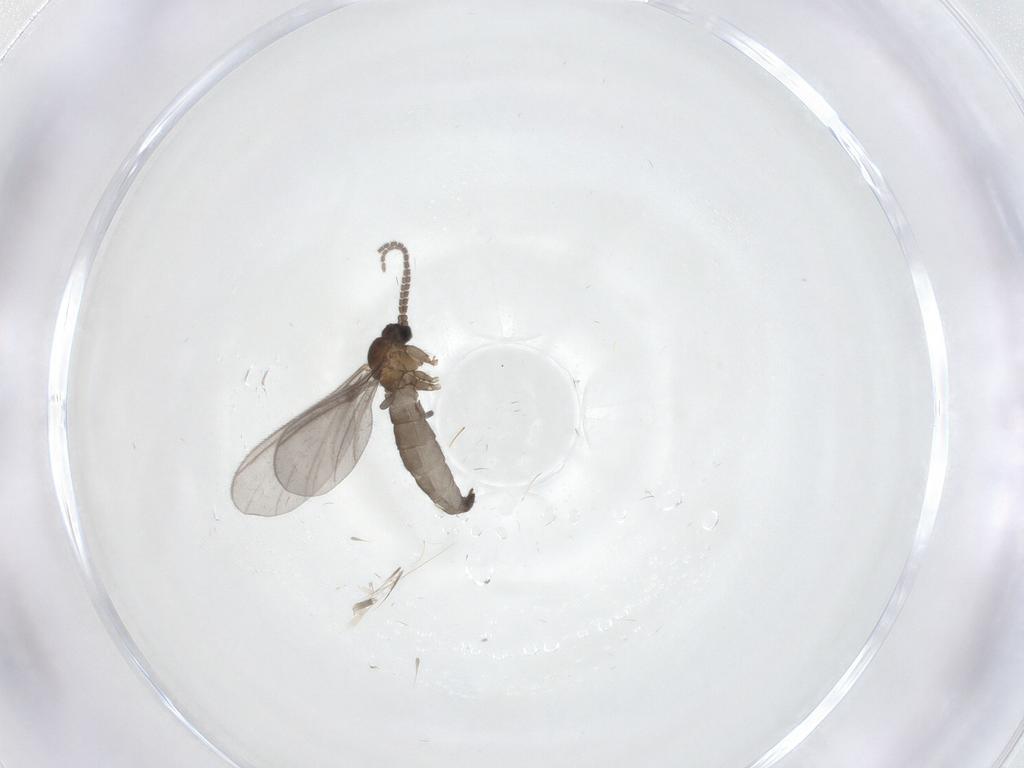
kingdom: Animalia
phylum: Arthropoda
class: Insecta
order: Diptera
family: Sciaridae
